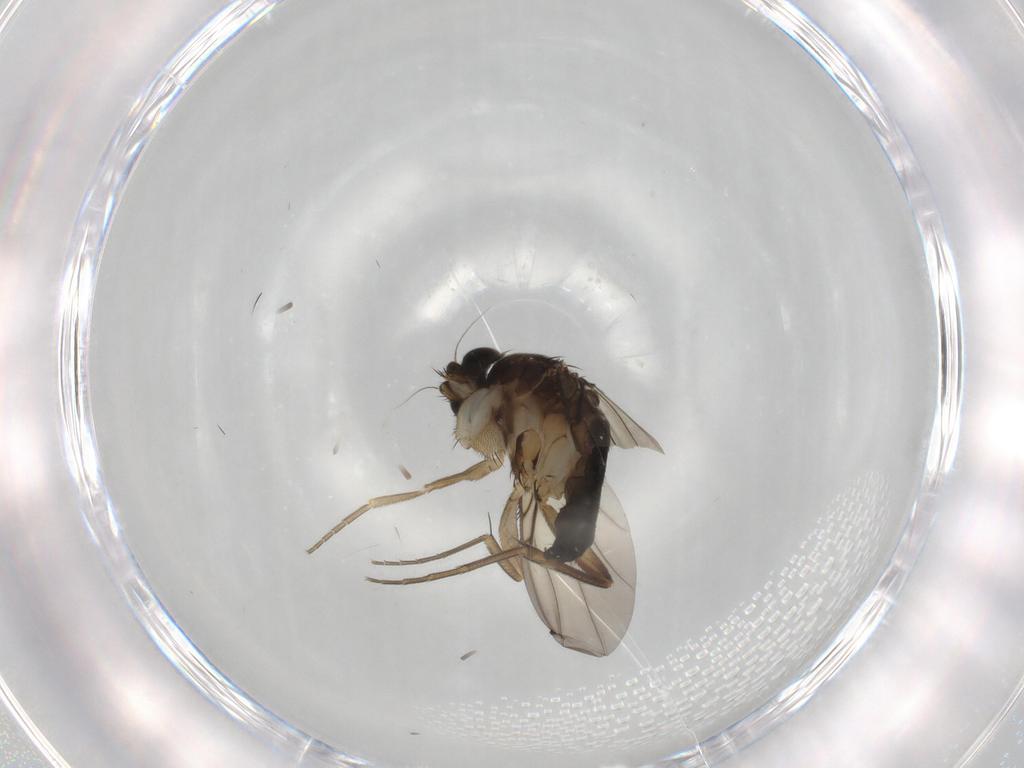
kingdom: Animalia
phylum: Arthropoda
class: Insecta
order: Diptera
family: Phoridae
